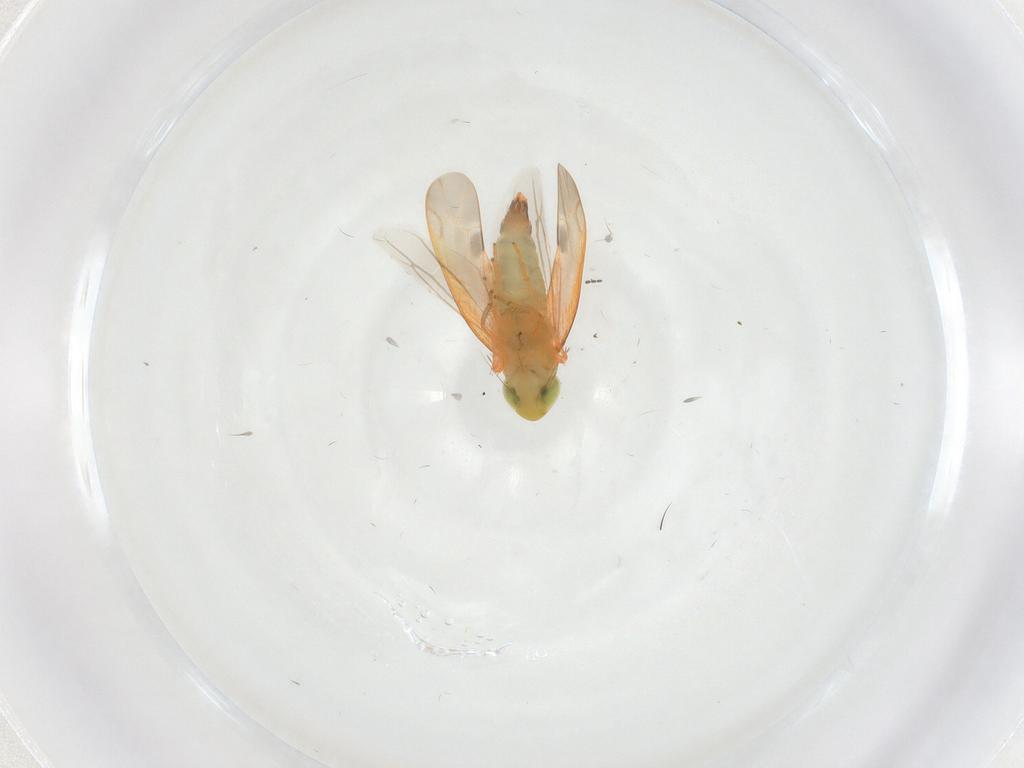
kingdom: Animalia
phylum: Arthropoda
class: Insecta
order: Hemiptera
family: Cicadellidae
